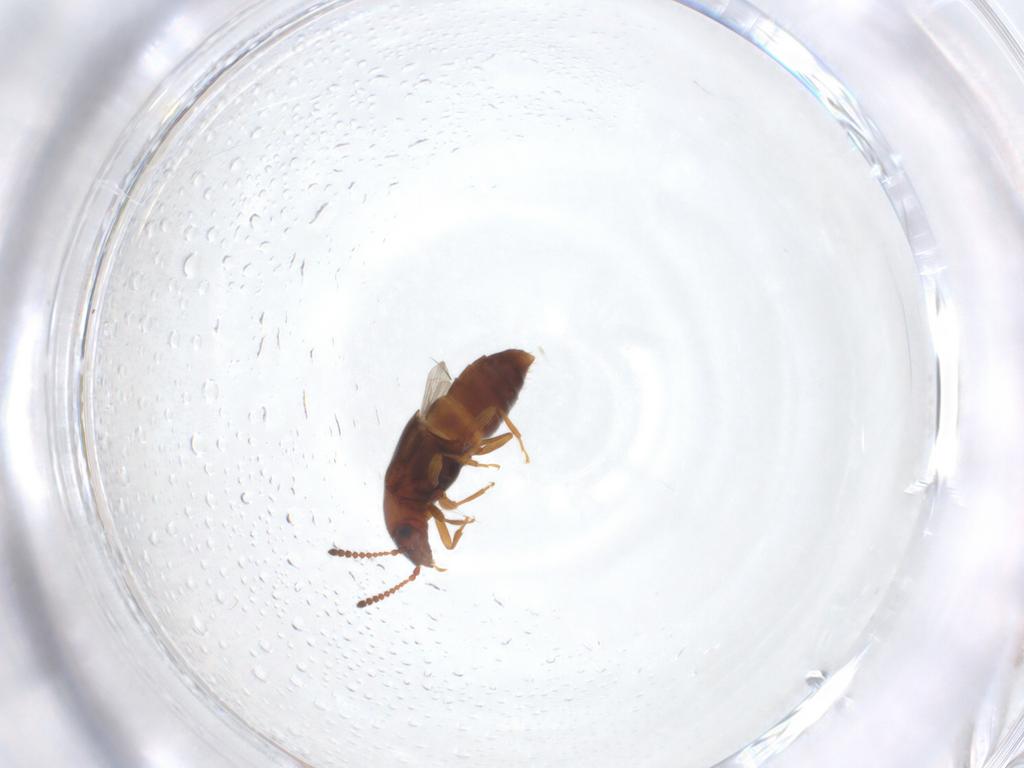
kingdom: Animalia
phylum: Arthropoda
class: Insecta
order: Coleoptera
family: Staphylinidae
